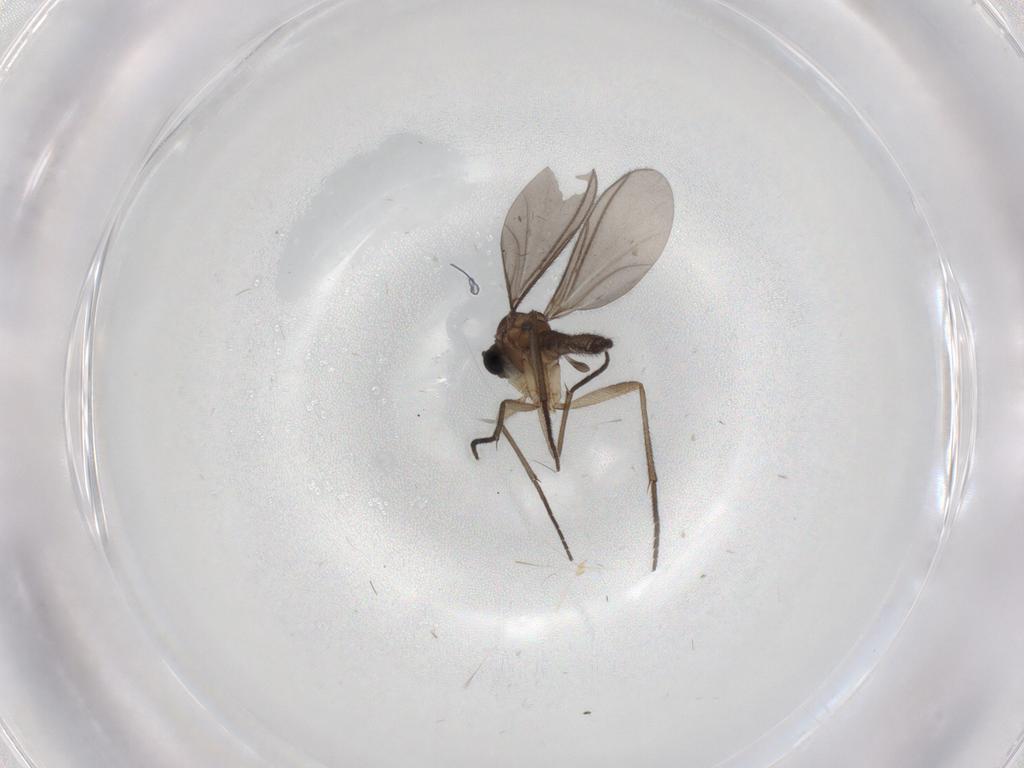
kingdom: Animalia
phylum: Arthropoda
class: Insecta
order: Diptera
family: Sciaridae
